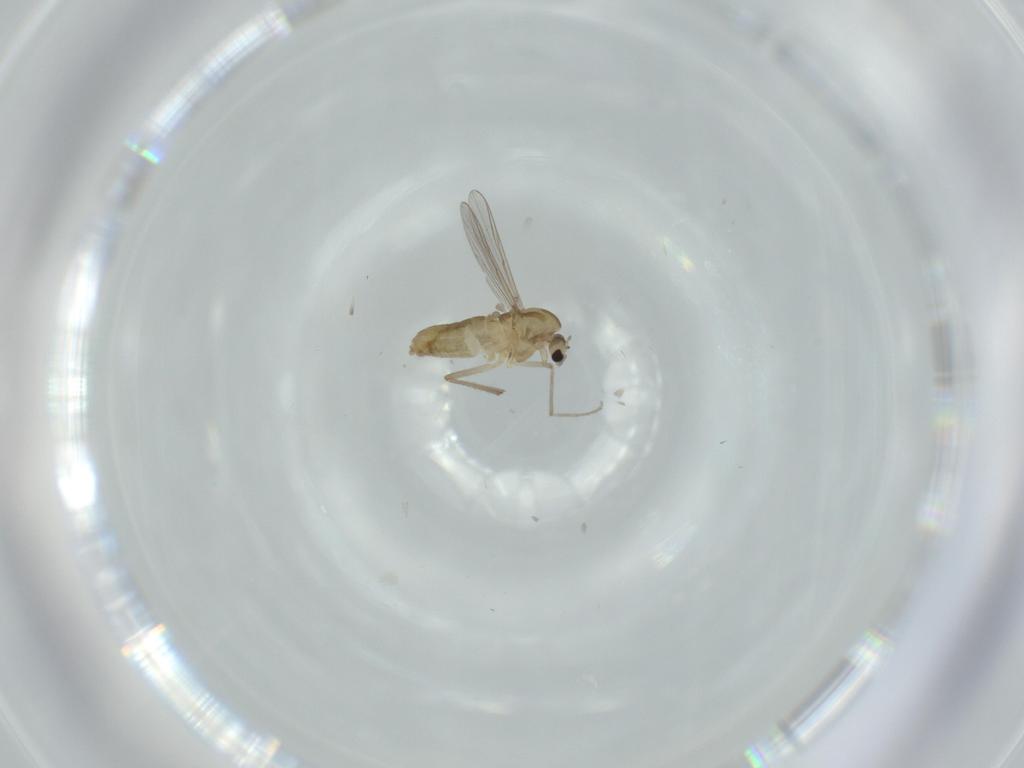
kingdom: Animalia
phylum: Arthropoda
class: Insecta
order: Diptera
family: Chironomidae
